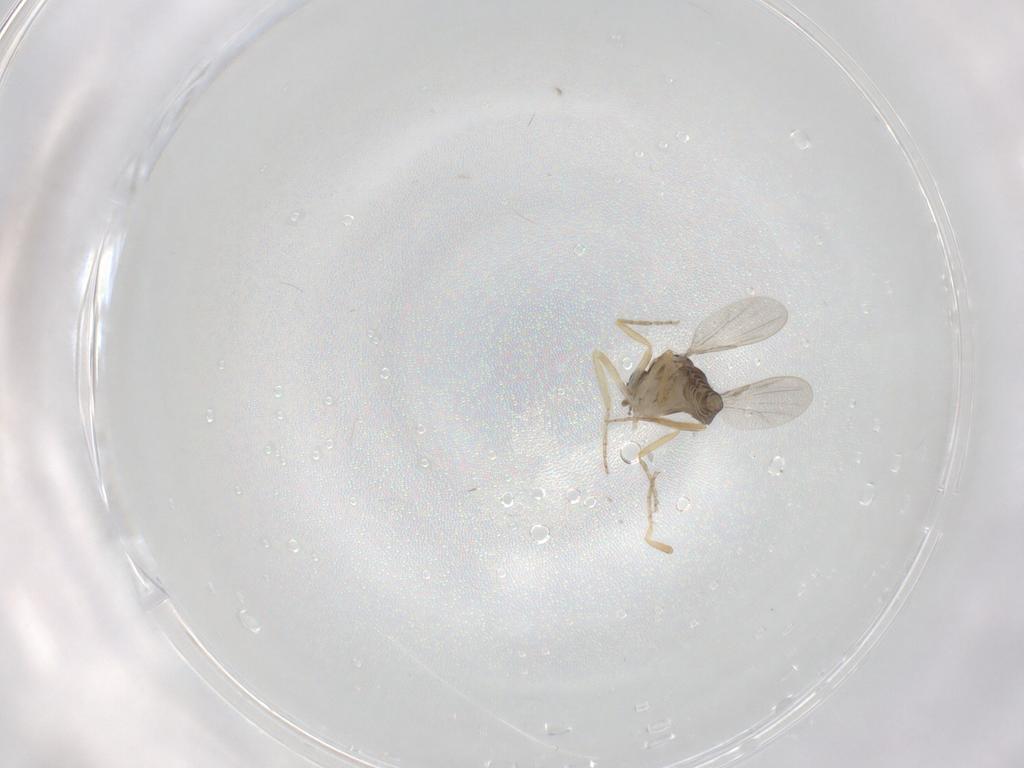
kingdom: Animalia
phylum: Arthropoda
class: Insecta
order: Diptera
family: Ceratopogonidae
